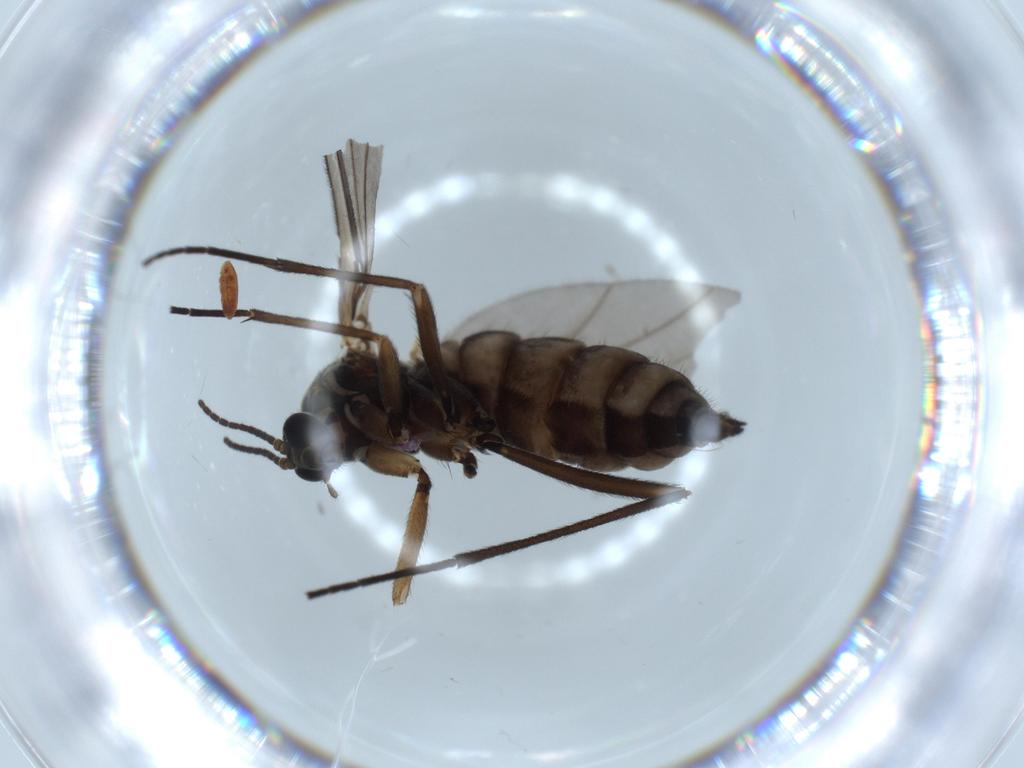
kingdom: Animalia
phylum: Arthropoda
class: Insecta
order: Diptera
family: Sciaridae
